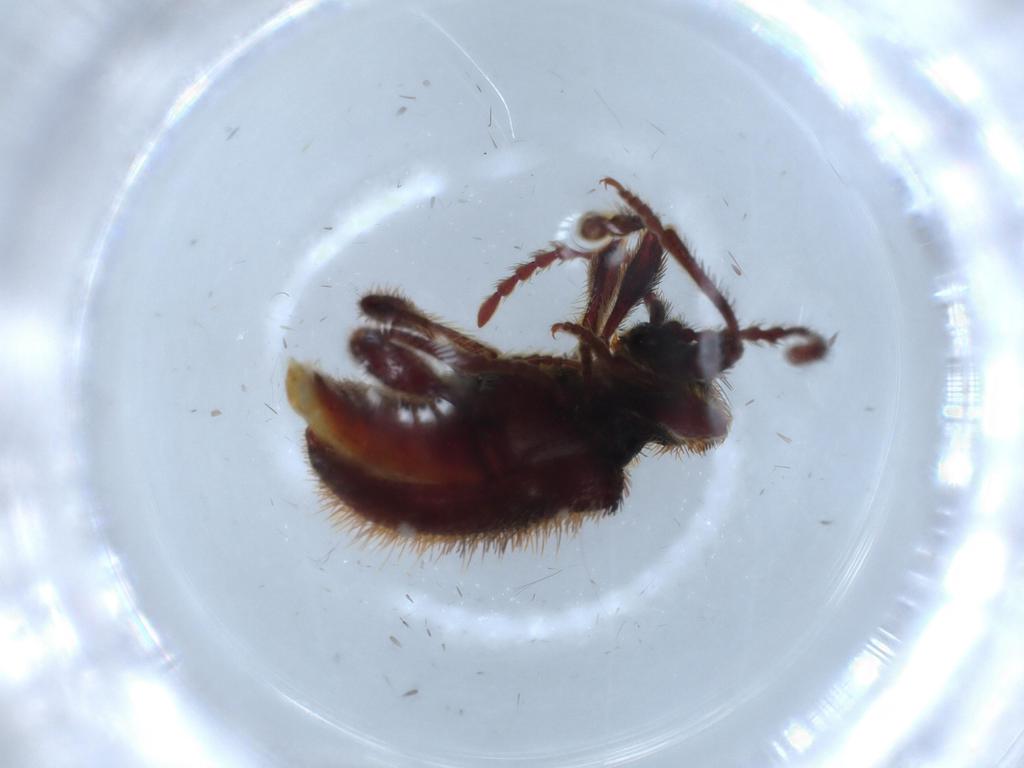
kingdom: Animalia
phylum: Arthropoda
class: Insecta
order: Coleoptera
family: Ptinidae
